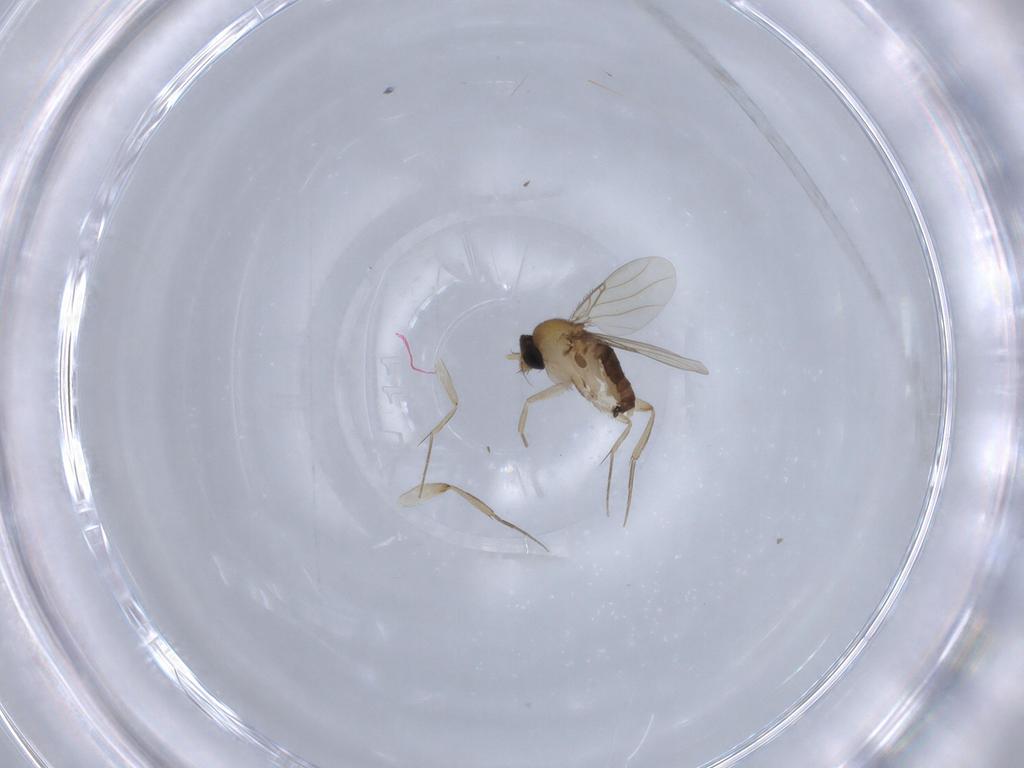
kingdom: Animalia
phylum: Arthropoda
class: Insecta
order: Diptera
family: Phoridae
